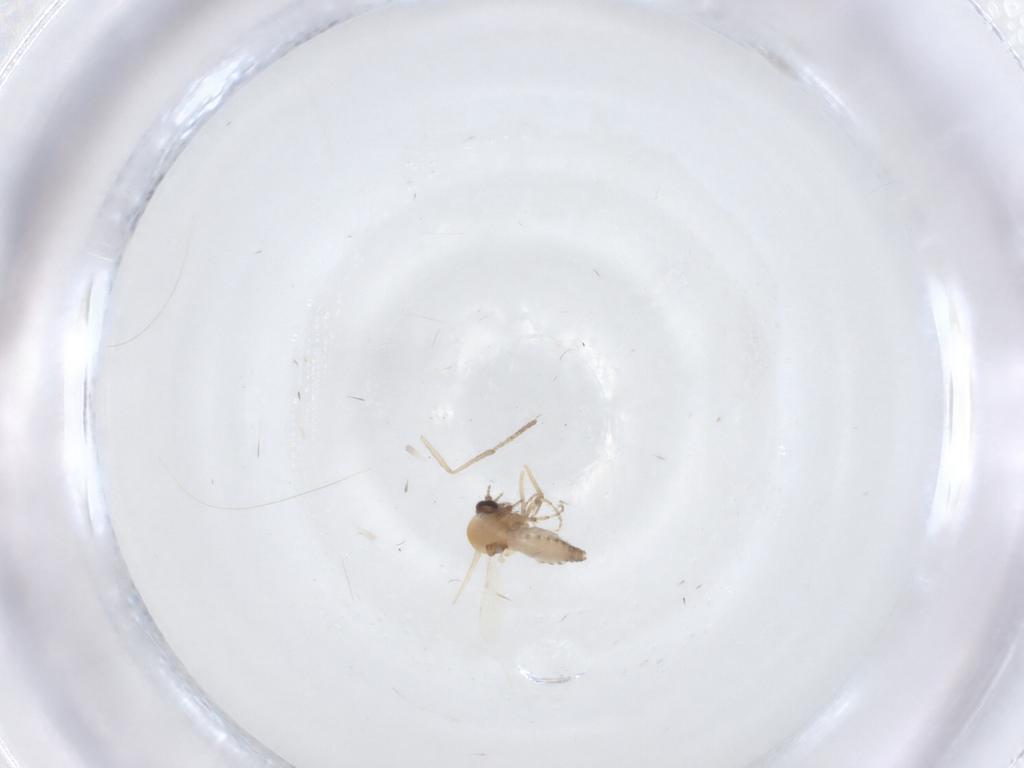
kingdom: Animalia
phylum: Arthropoda
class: Insecta
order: Diptera
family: Ceratopogonidae
